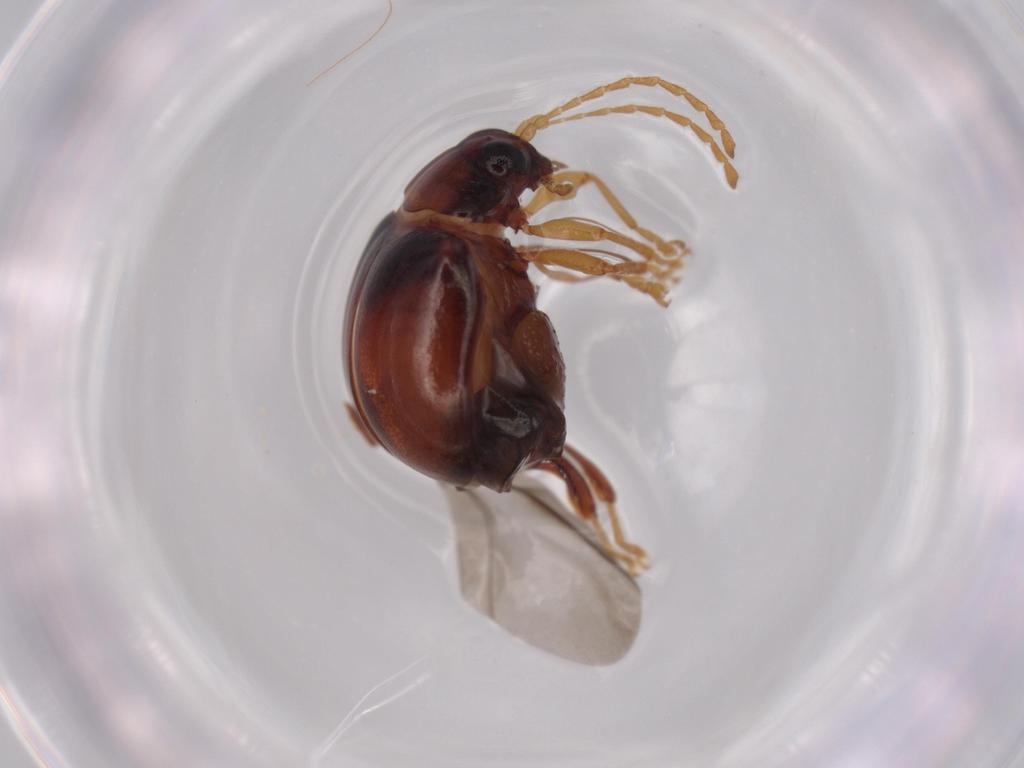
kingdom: Animalia
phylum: Arthropoda
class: Insecta
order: Coleoptera
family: Chrysomelidae
